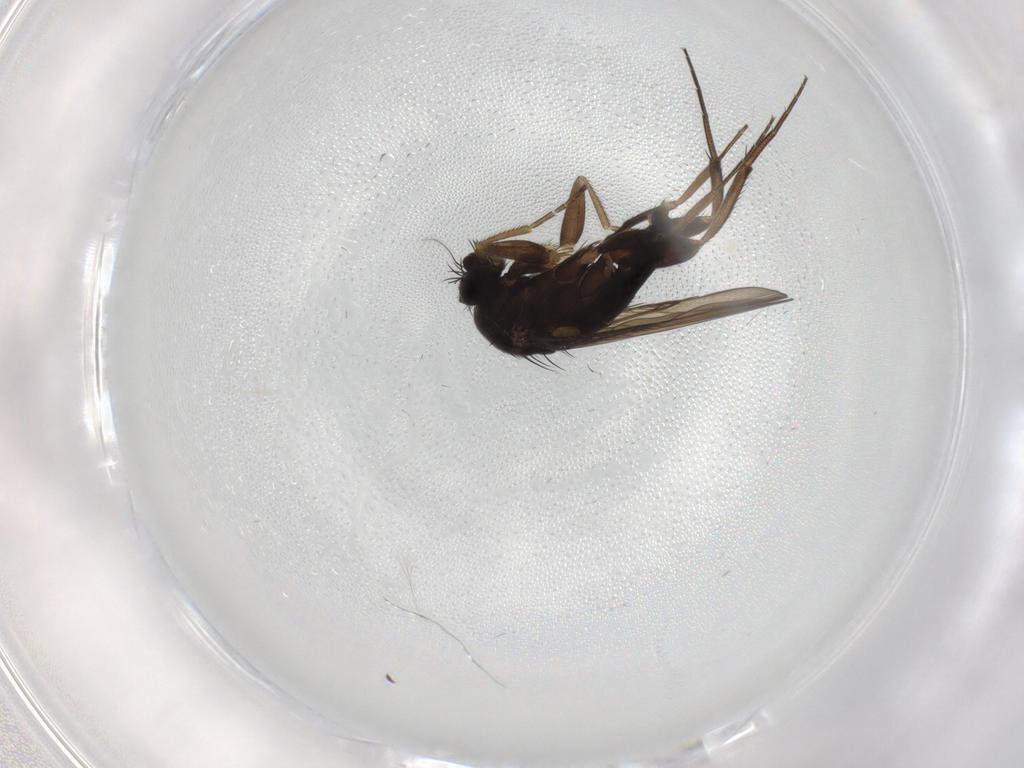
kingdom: Animalia
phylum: Arthropoda
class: Insecta
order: Diptera
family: Phoridae
